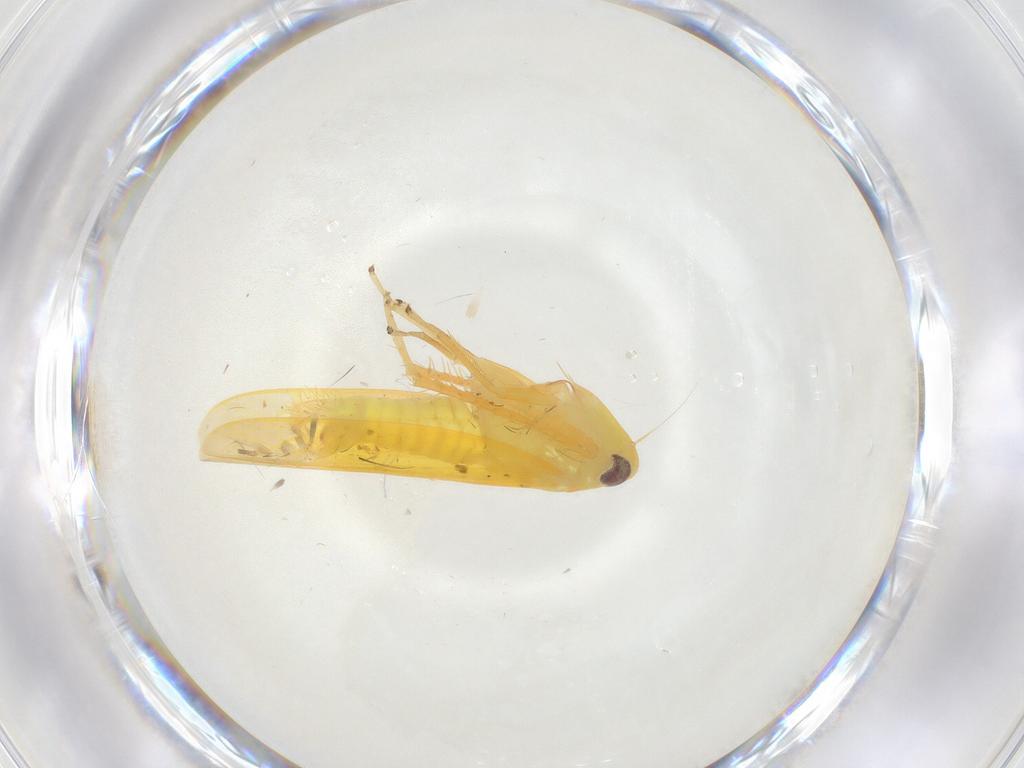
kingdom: Animalia
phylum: Arthropoda
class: Insecta
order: Hemiptera
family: Cicadellidae
